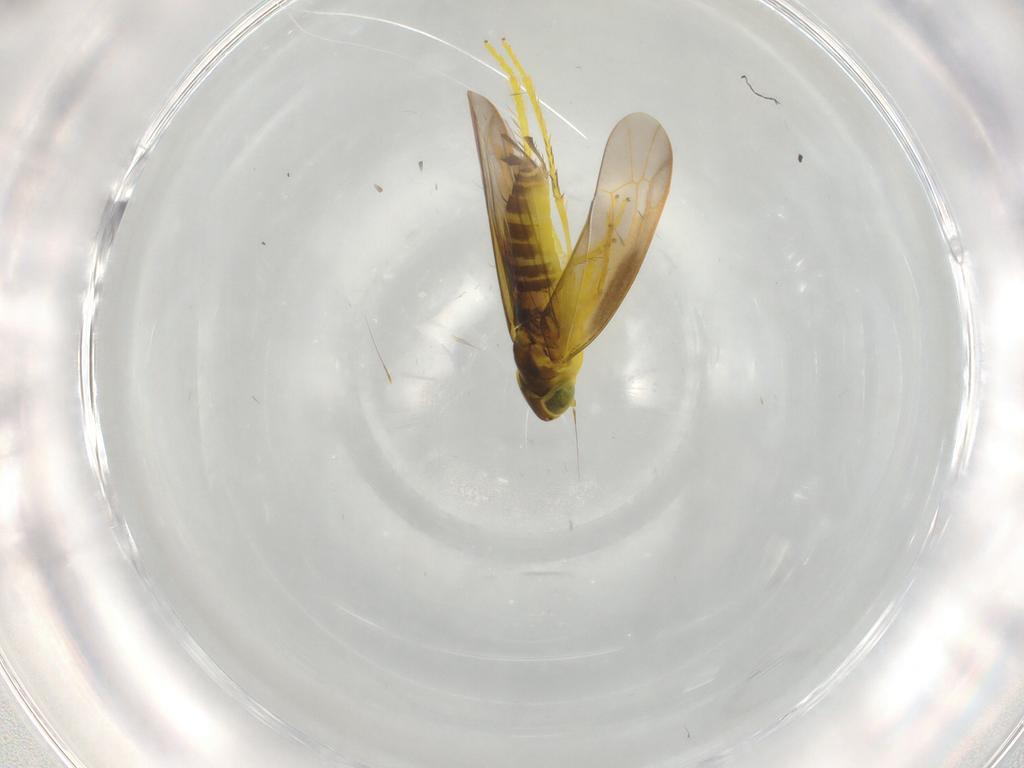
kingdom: Animalia
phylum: Arthropoda
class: Insecta
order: Hemiptera
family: Cicadellidae
